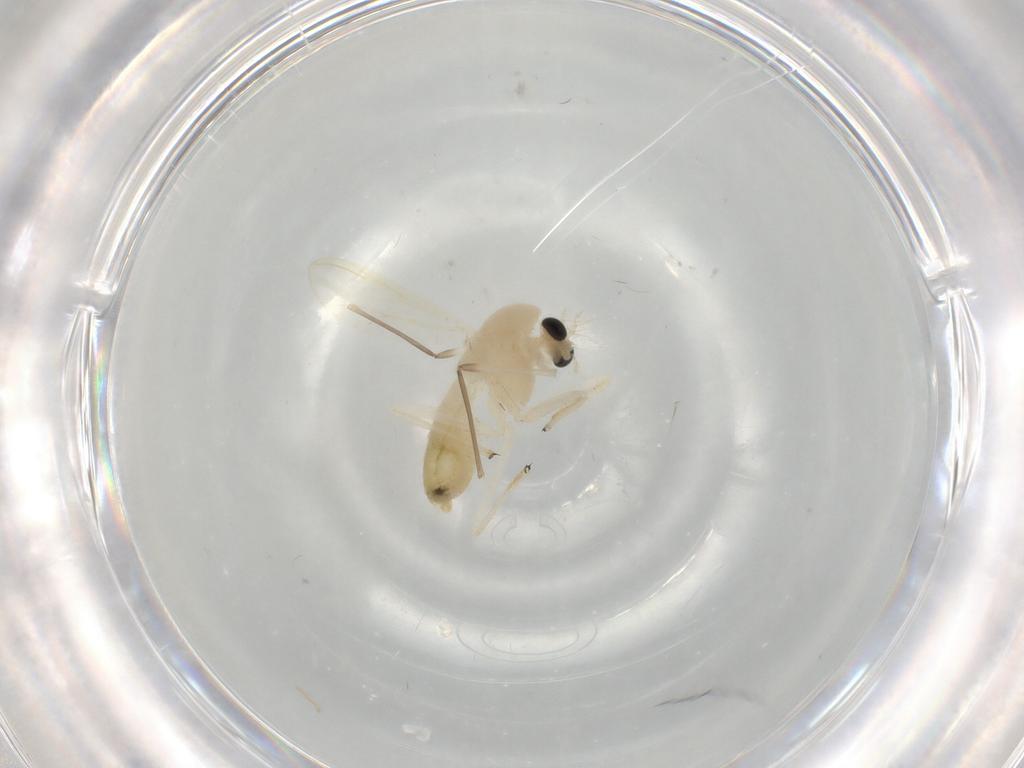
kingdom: Animalia
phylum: Arthropoda
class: Insecta
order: Diptera
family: Chironomidae
